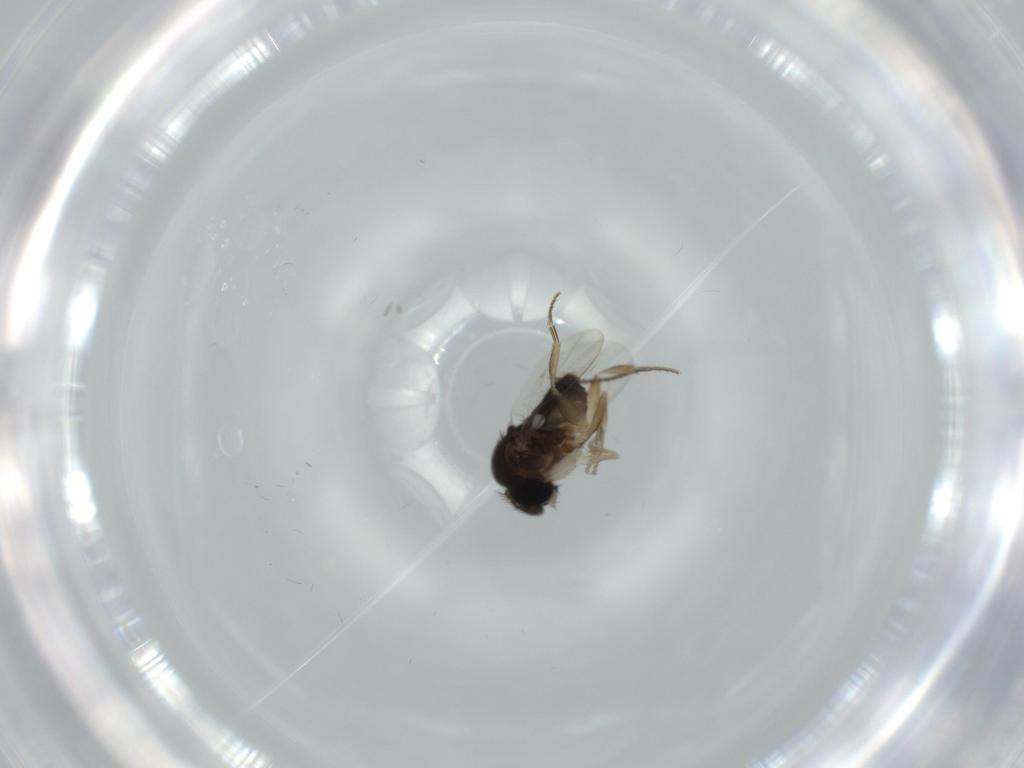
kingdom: Animalia
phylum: Arthropoda
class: Insecta
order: Diptera
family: Phoridae
